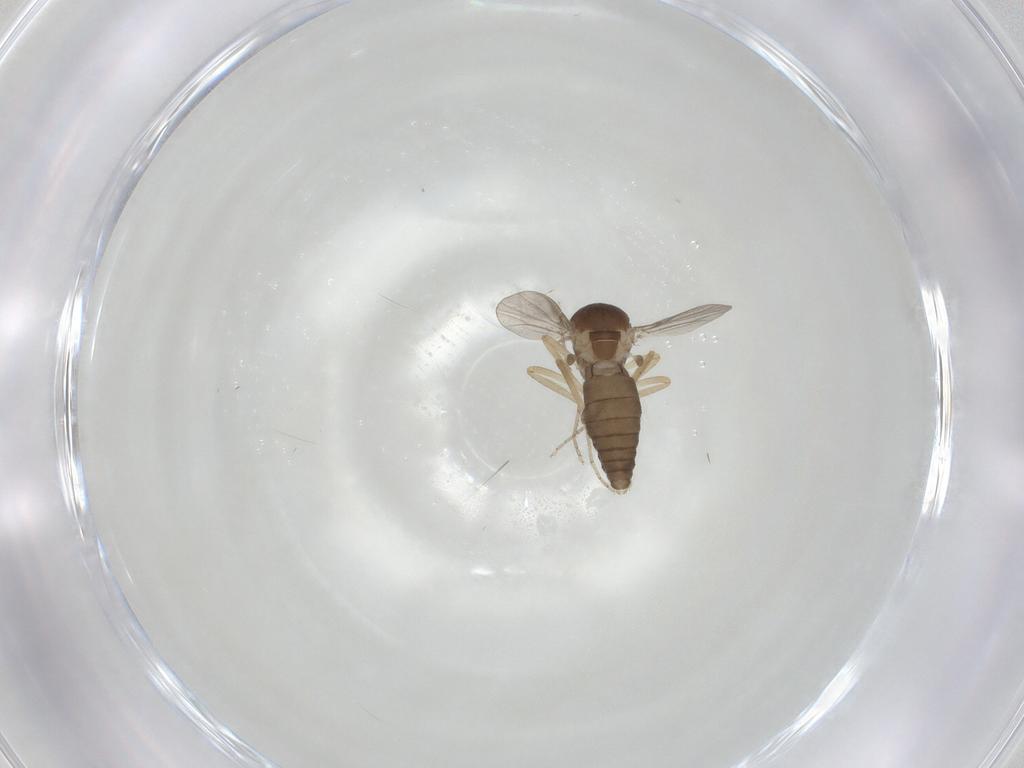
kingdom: Animalia
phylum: Arthropoda
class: Insecta
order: Diptera
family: Ceratopogonidae
